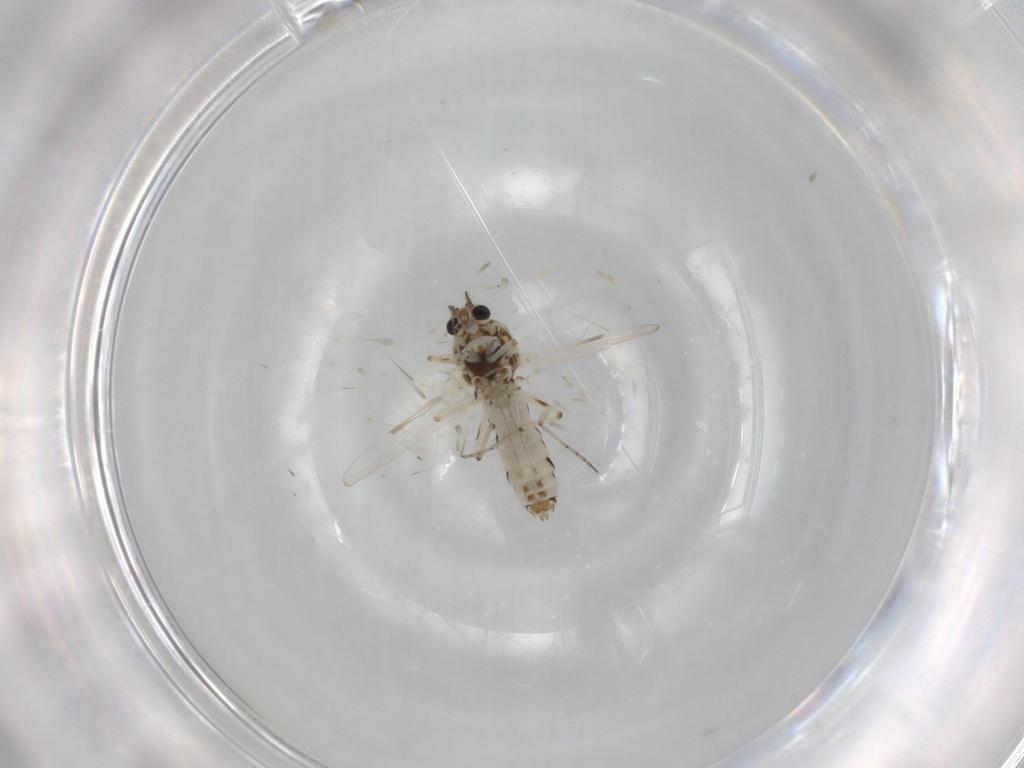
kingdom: Animalia
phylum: Arthropoda
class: Insecta
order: Diptera
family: Ceratopogonidae
